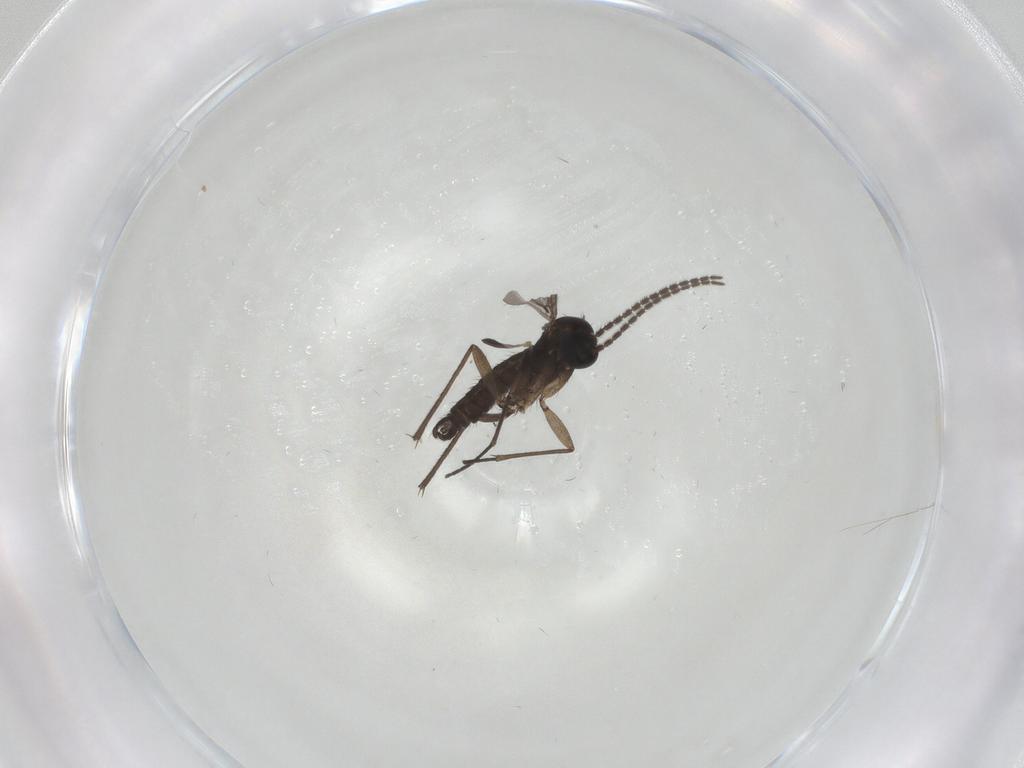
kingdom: Animalia
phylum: Arthropoda
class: Insecta
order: Diptera
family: Sciaridae
